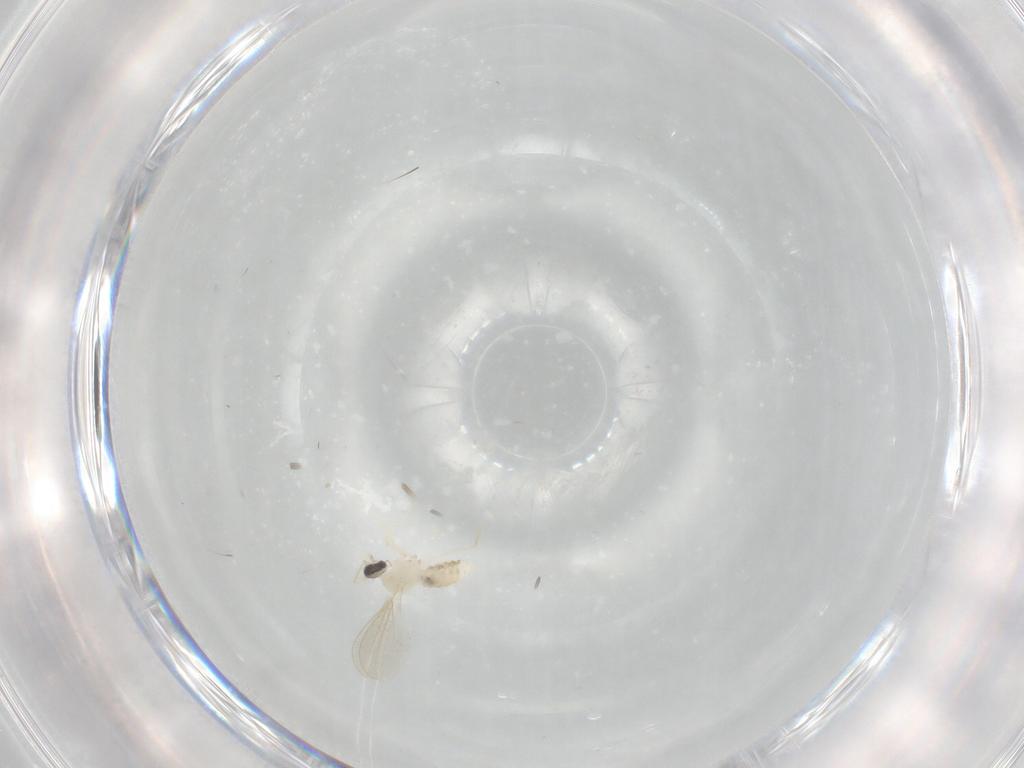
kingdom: Animalia
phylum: Arthropoda
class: Insecta
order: Diptera
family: Cecidomyiidae
